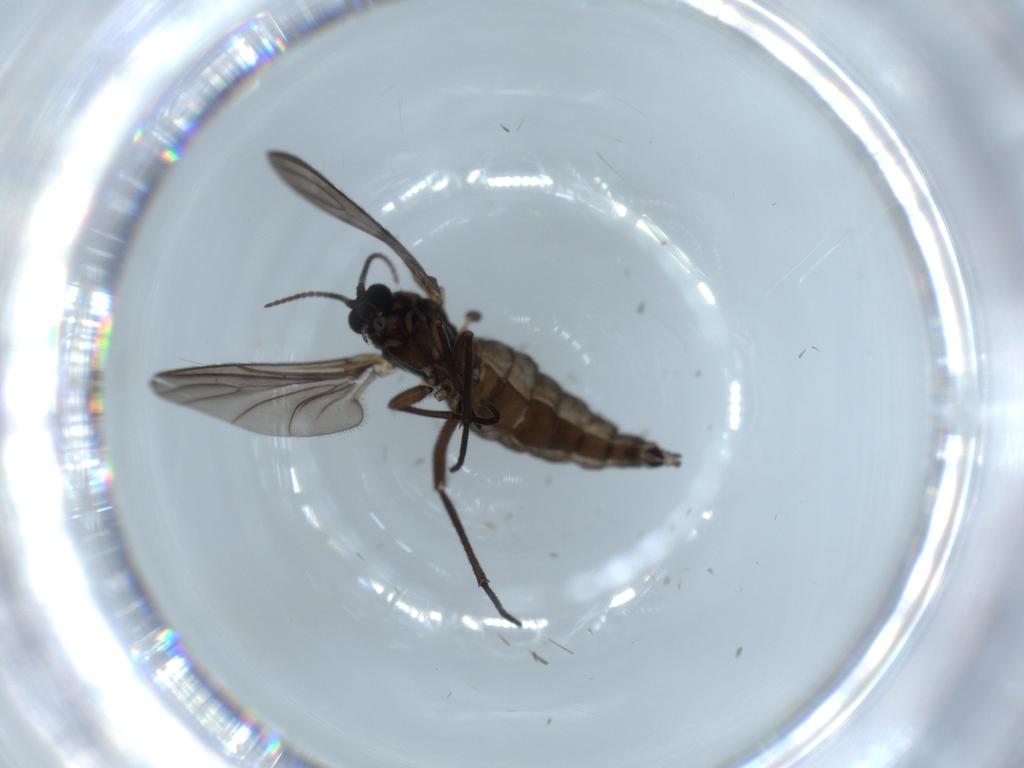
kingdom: Animalia
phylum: Arthropoda
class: Insecta
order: Diptera
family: Sciaridae
